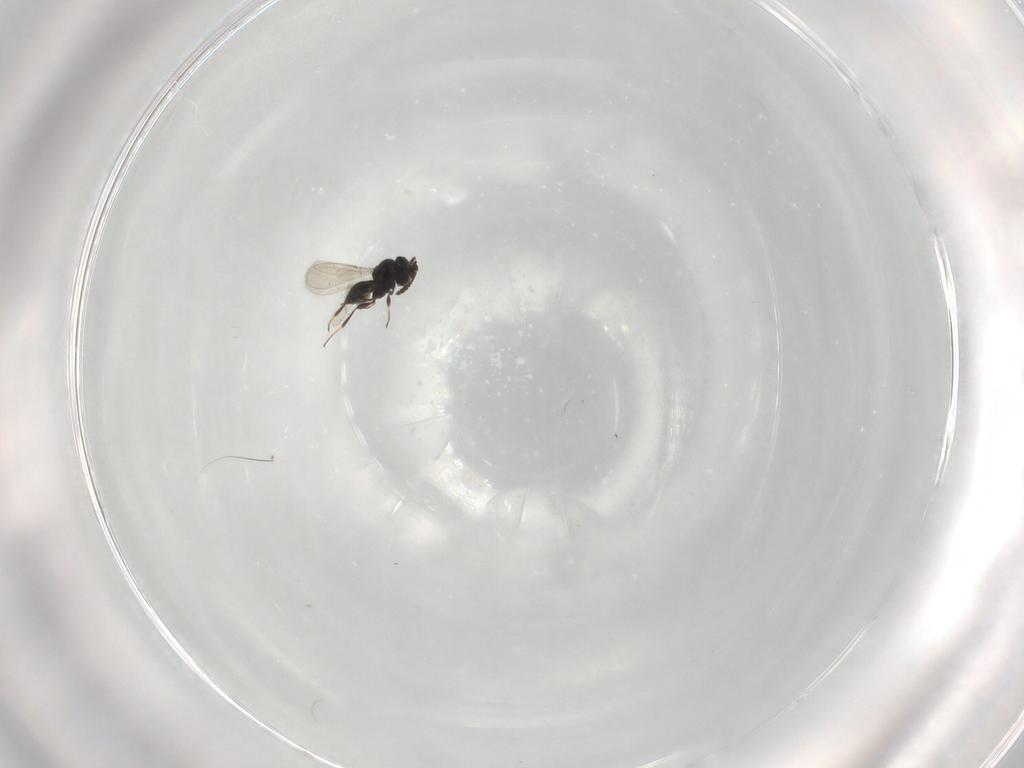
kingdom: Animalia
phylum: Arthropoda
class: Insecta
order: Hymenoptera
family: Scelionidae
